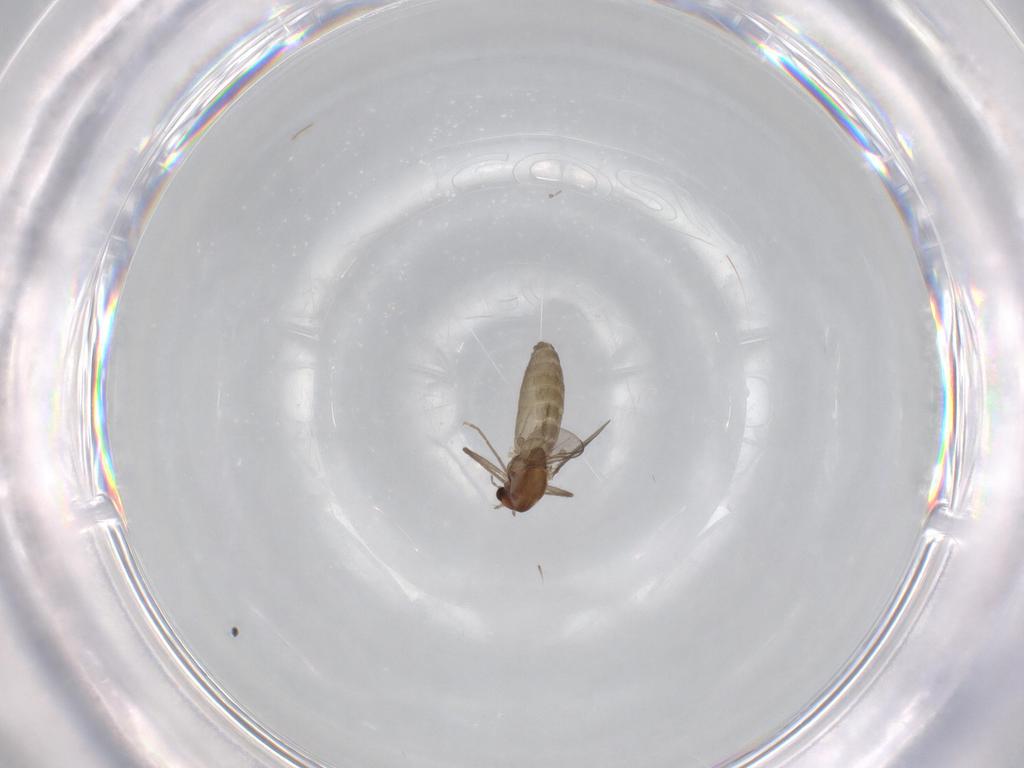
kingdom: Animalia
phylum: Arthropoda
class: Insecta
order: Diptera
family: Chironomidae
